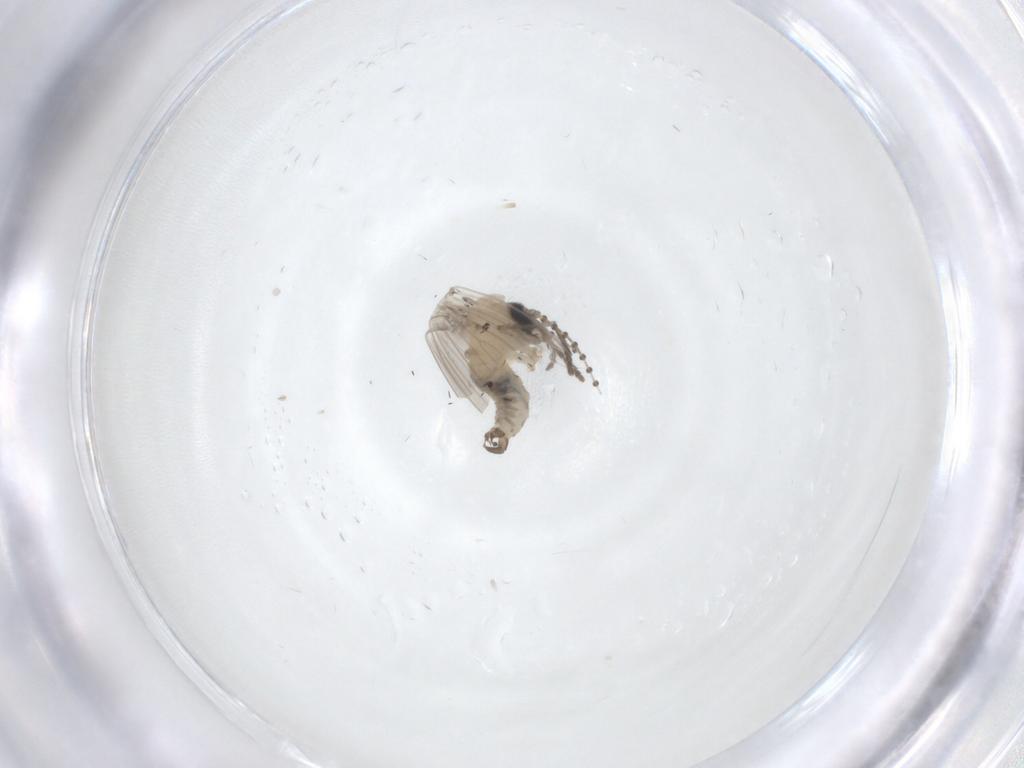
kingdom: Animalia
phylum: Arthropoda
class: Insecta
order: Diptera
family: Psychodidae
